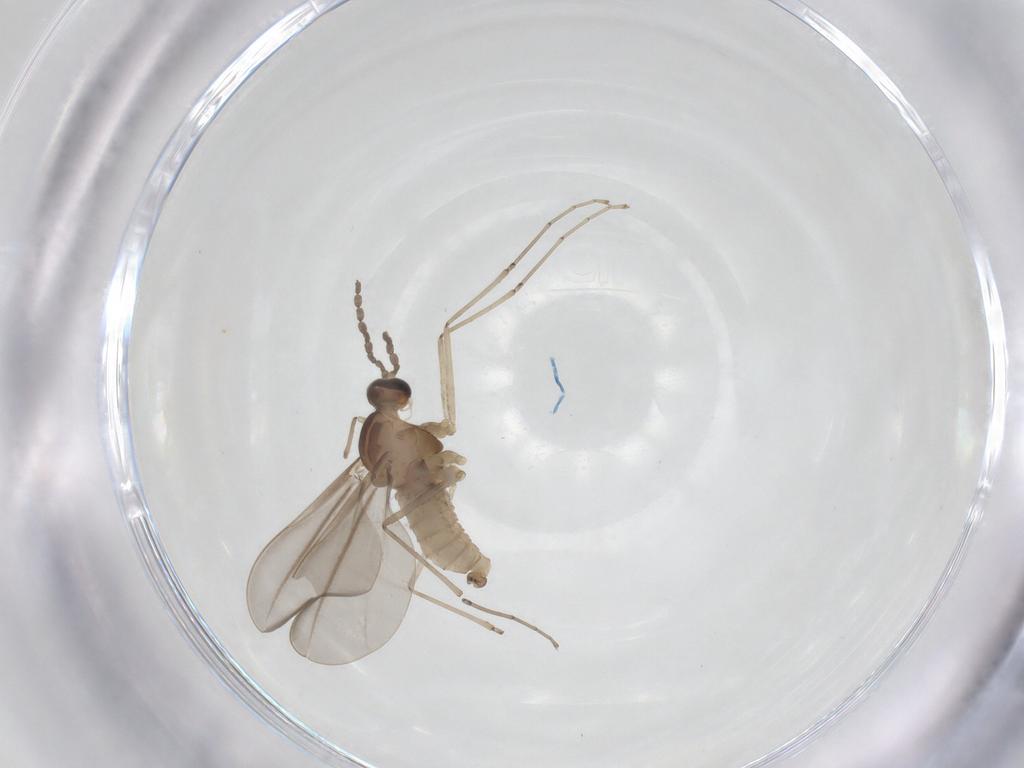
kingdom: Animalia
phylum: Arthropoda
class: Insecta
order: Diptera
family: Cecidomyiidae
